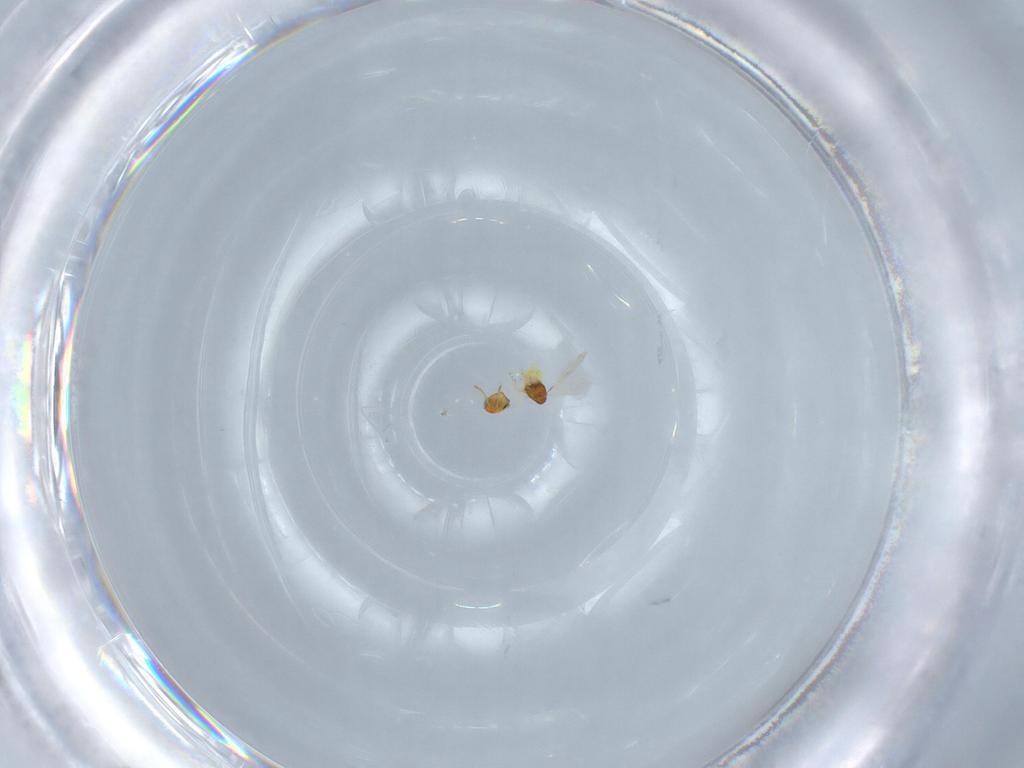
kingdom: Animalia
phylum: Arthropoda
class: Insecta
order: Hymenoptera
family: Aphelinidae
